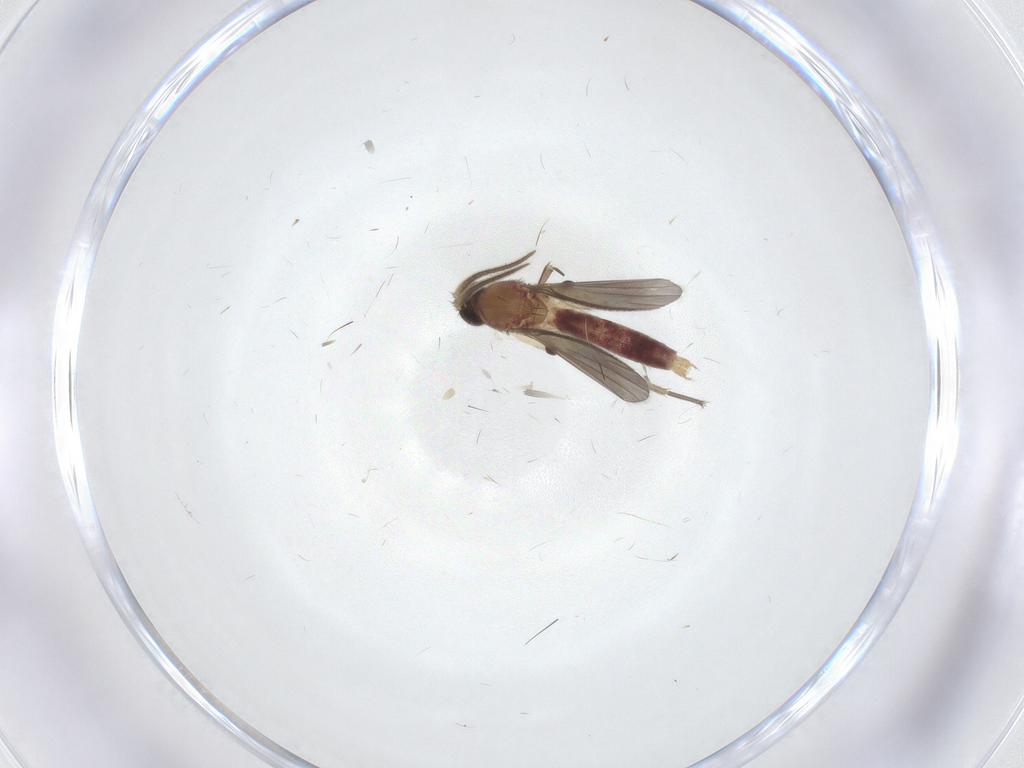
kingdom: Animalia
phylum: Arthropoda
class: Insecta
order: Diptera
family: Mycetophilidae
